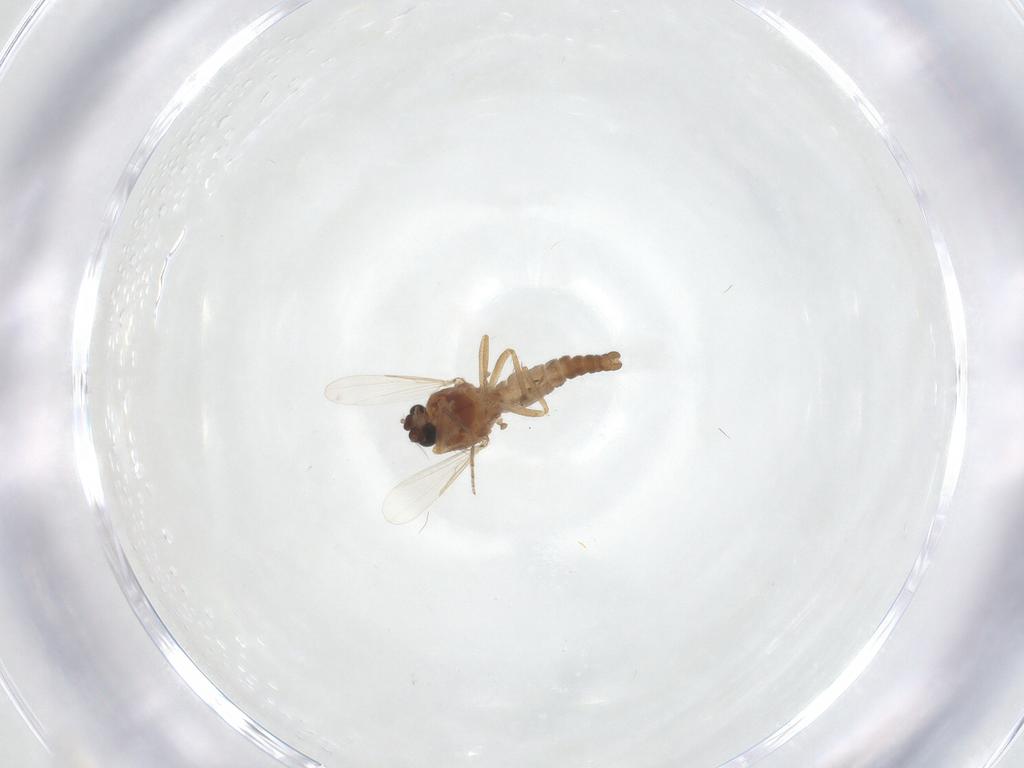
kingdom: Animalia
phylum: Arthropoda
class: Insecta
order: Diptera
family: Ceratopogonidae
